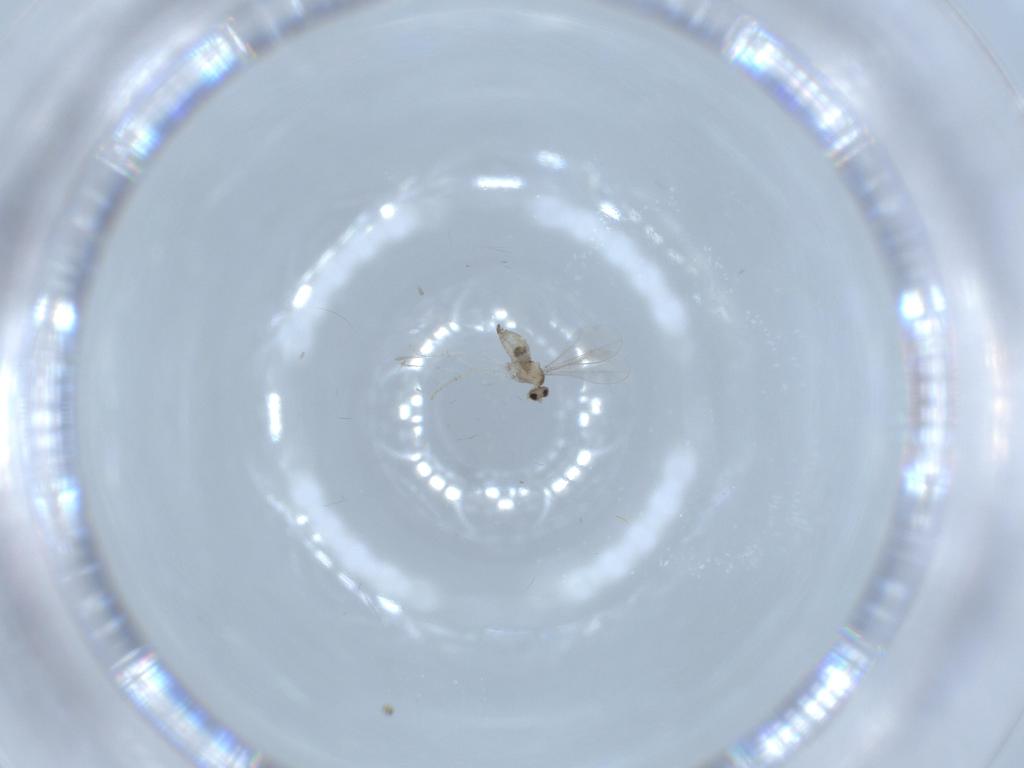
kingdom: Animalia
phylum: Arthropoda
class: Insecta
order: Diptera
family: Cecidomyiidae
